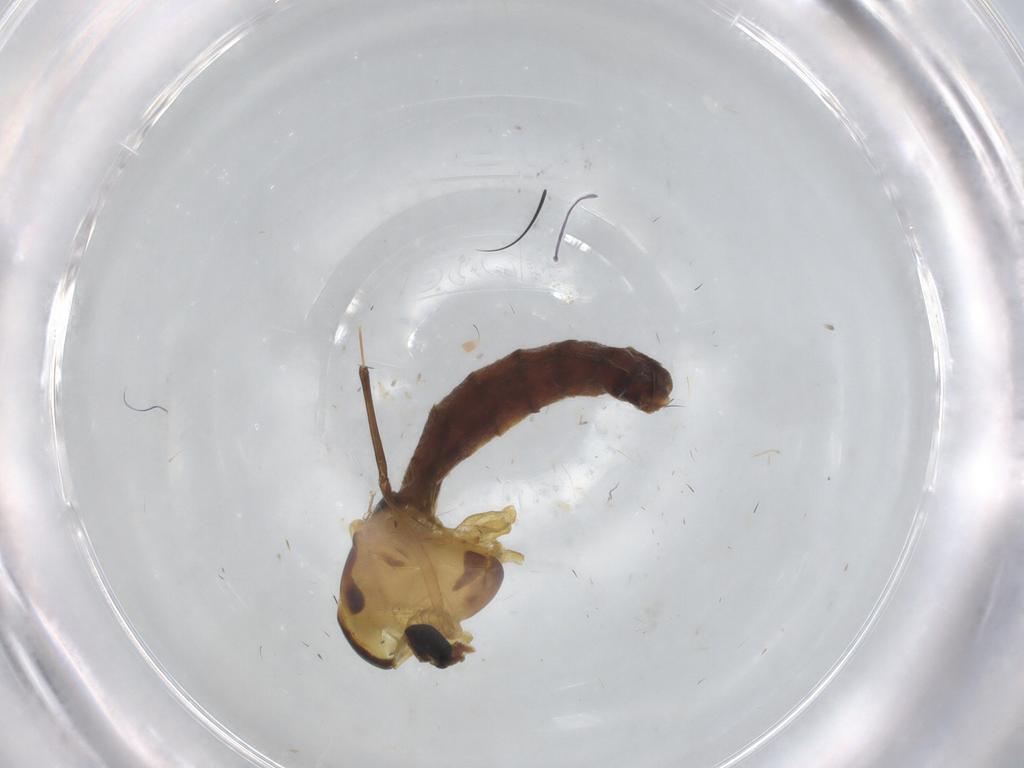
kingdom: Animalia
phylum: Arthropoda
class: Insecta
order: Diptera
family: Chironomidae
